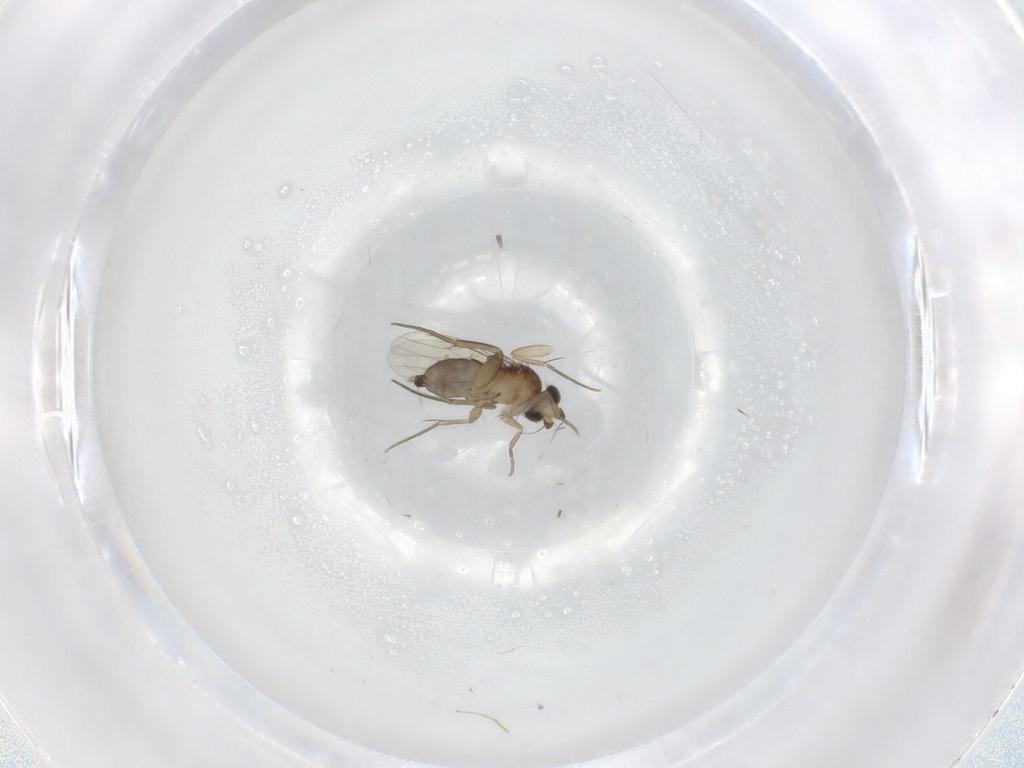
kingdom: Animalia
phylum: Arthropoda
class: Insecta
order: Diptera
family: Phoridae
